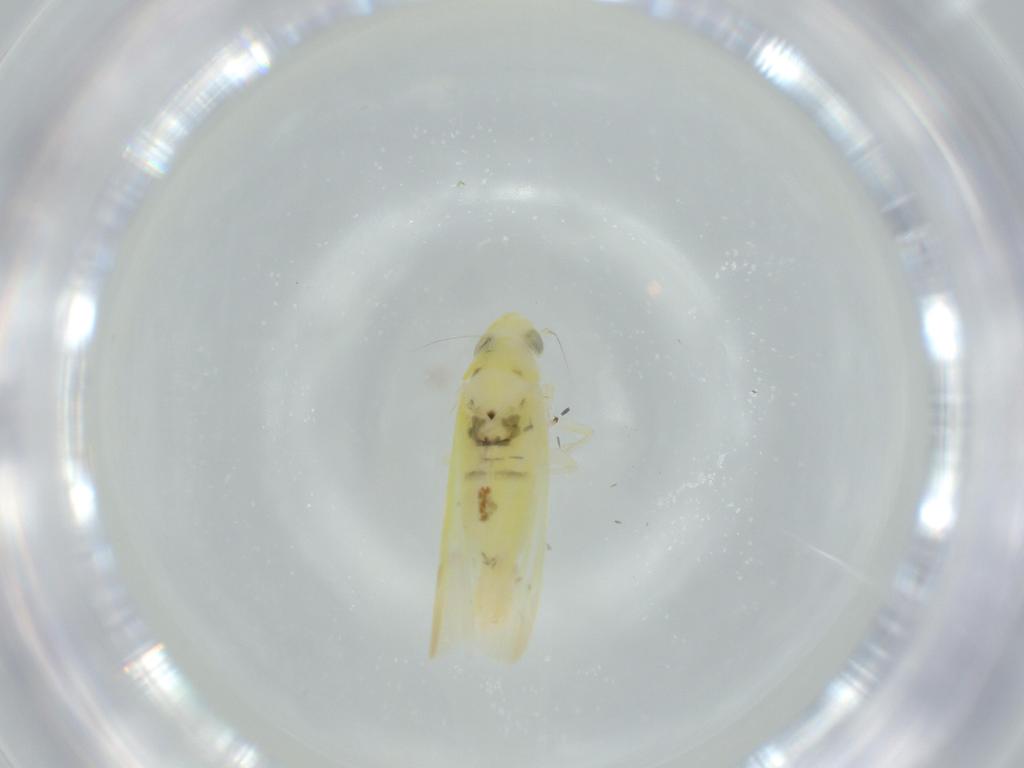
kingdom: Animalia
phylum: Arthropoda
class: Insecta
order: Hemiptera
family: Cicadellidae
